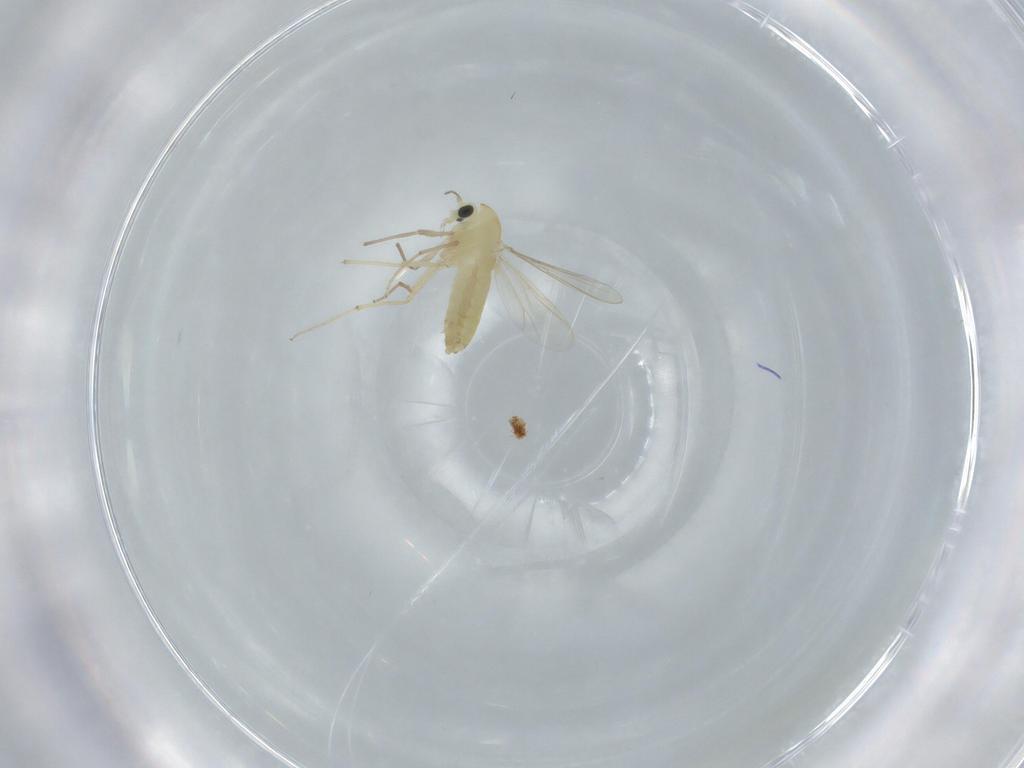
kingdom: Animalia
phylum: Arthropoda
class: Insecta
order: Diptera
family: Chironomidae
